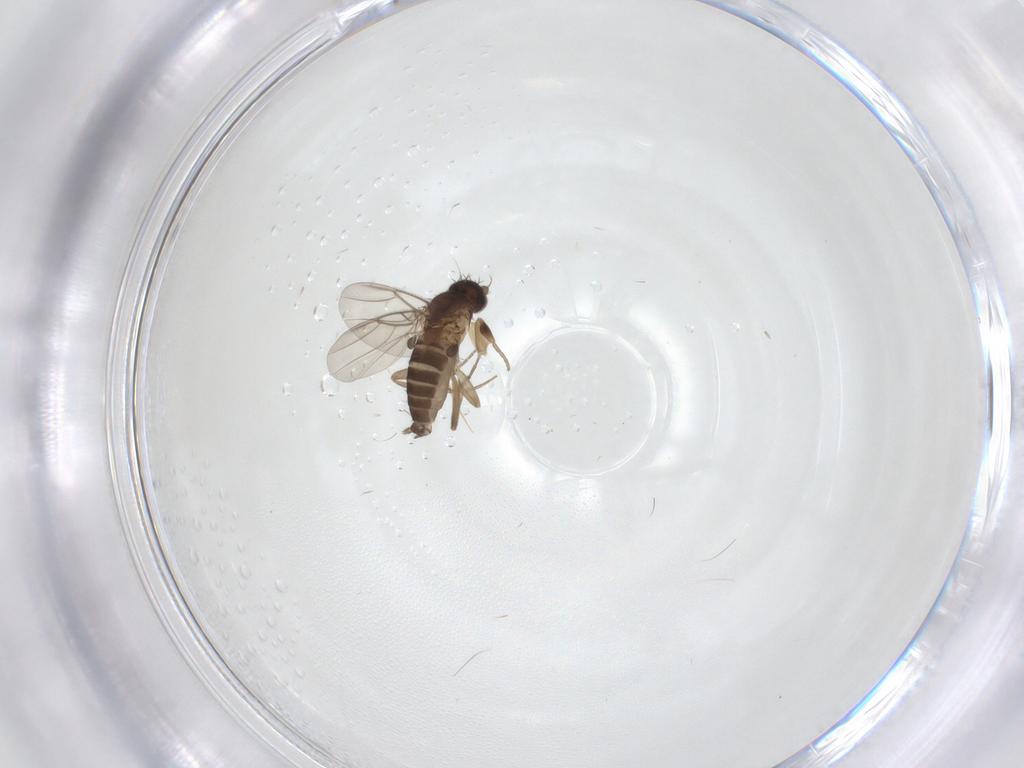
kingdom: Animalia
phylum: Arthropoda
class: Insecta
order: Diptera
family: Phoridae
